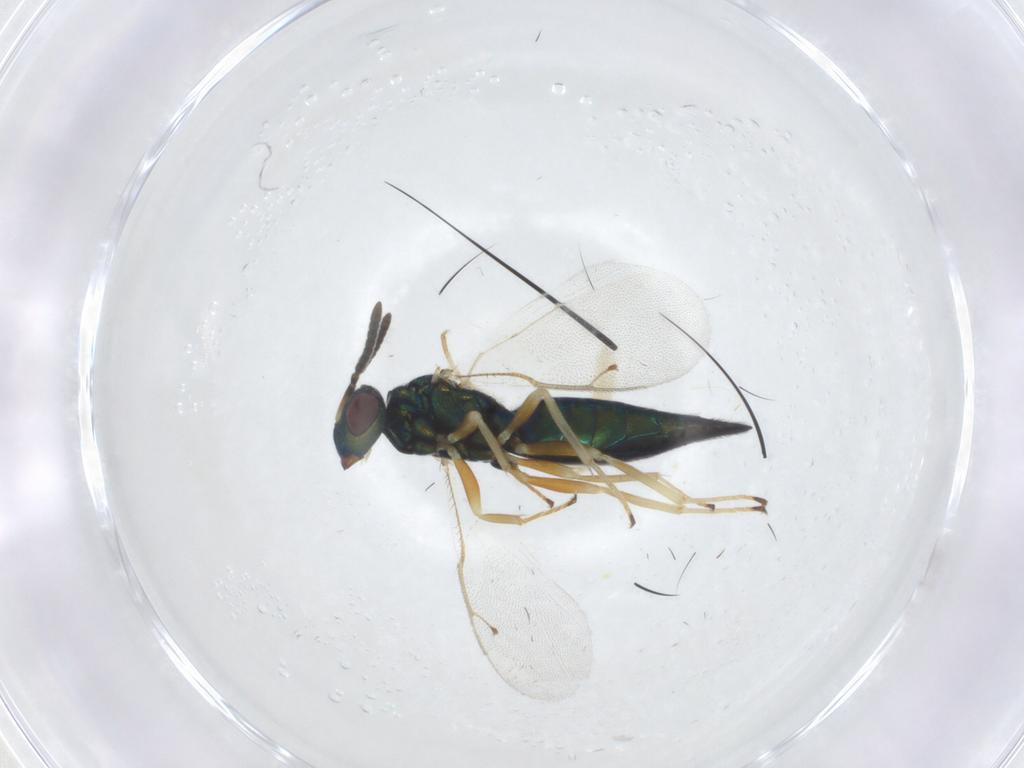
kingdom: Animalia
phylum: Arthropoda
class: Insecta
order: Hymenoptera
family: Pteromalidae
